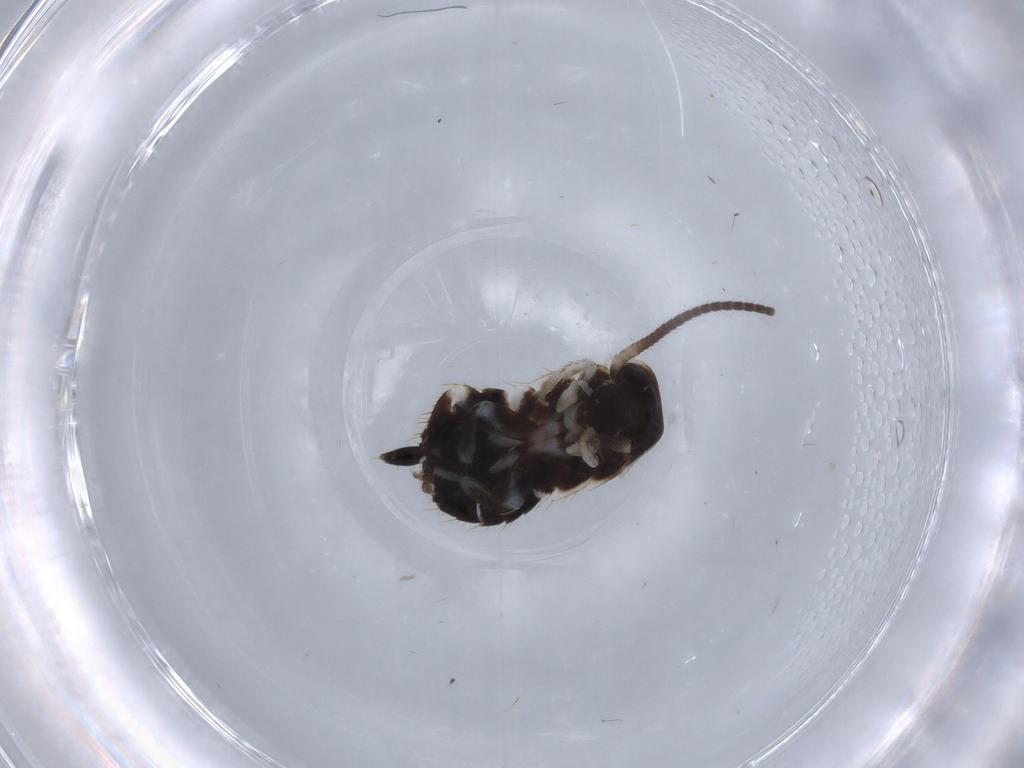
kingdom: Animalia
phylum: Arthropoda
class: Insecta
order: Blattodea
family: Ectobiidae
